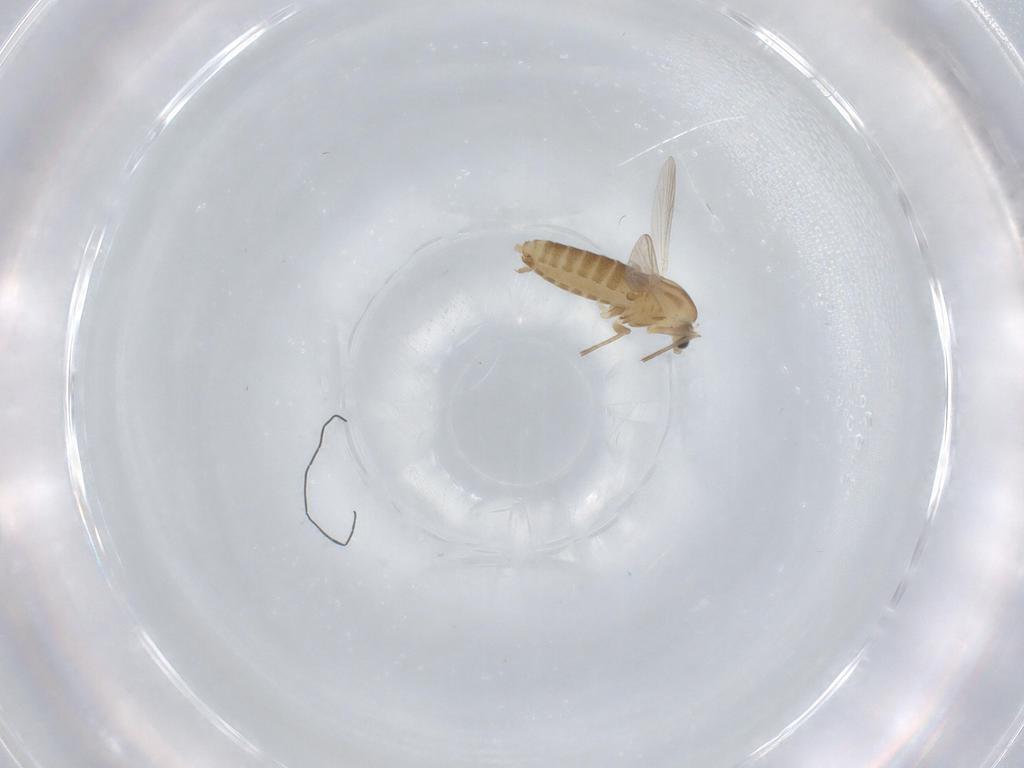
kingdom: Animalia
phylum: Arthropoda
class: Insecta
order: Diptera
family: Chironomidae
